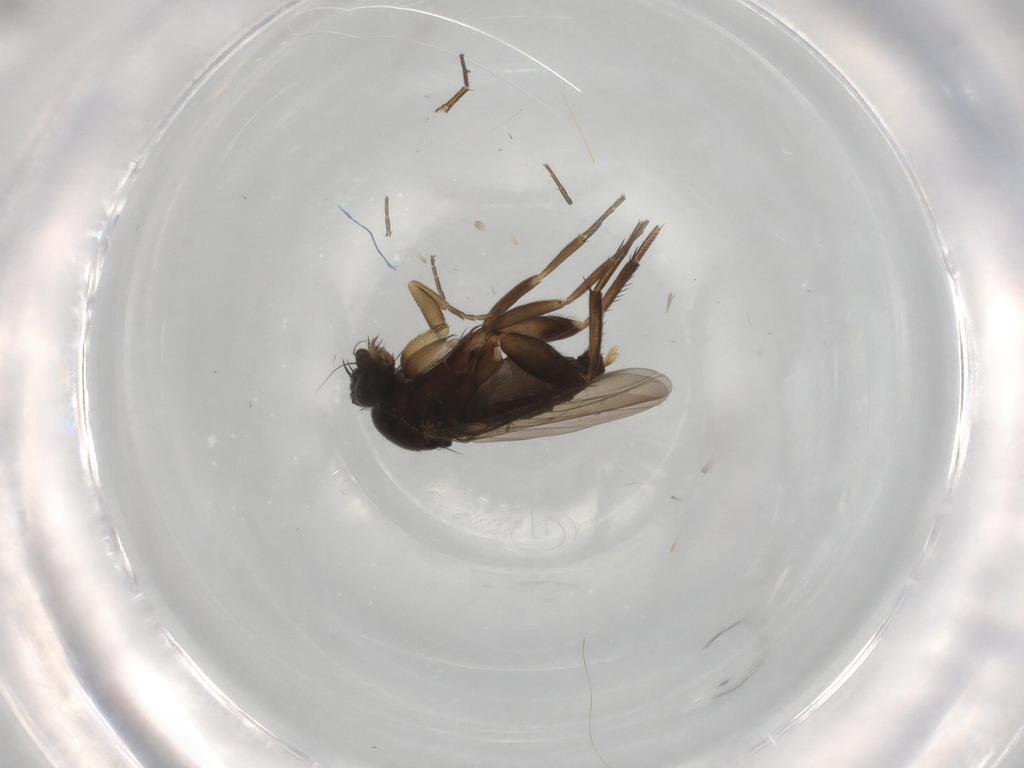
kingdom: Animalia
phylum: Arthropoda
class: Insecta
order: Diptera
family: Phoridae
